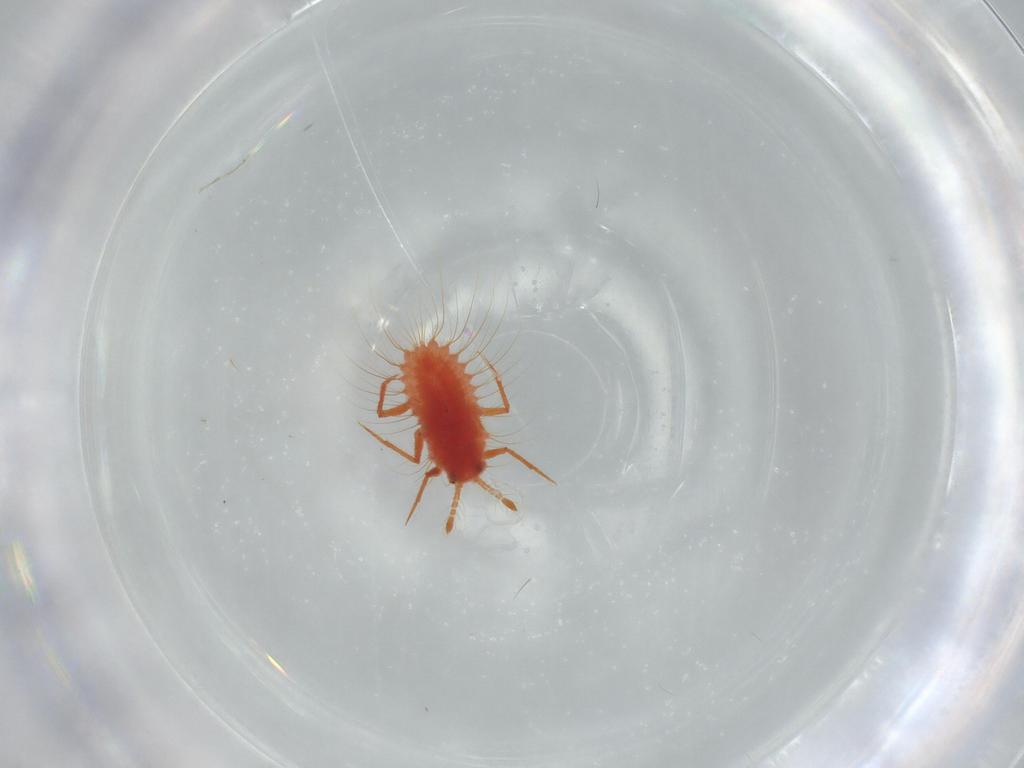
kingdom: Animalia
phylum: Arthropoda
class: Insecta
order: Hemiptera
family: Monophlebidae
